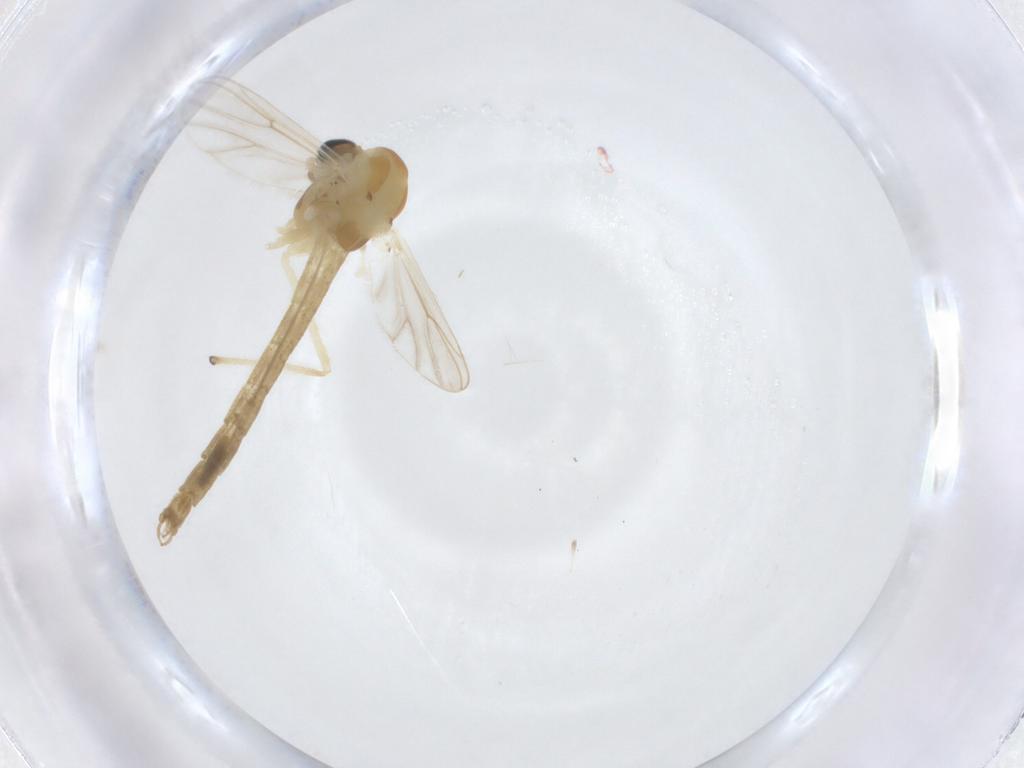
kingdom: Animalia
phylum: Arthropoda
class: Insecta
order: Diptera
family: Chironomidae
